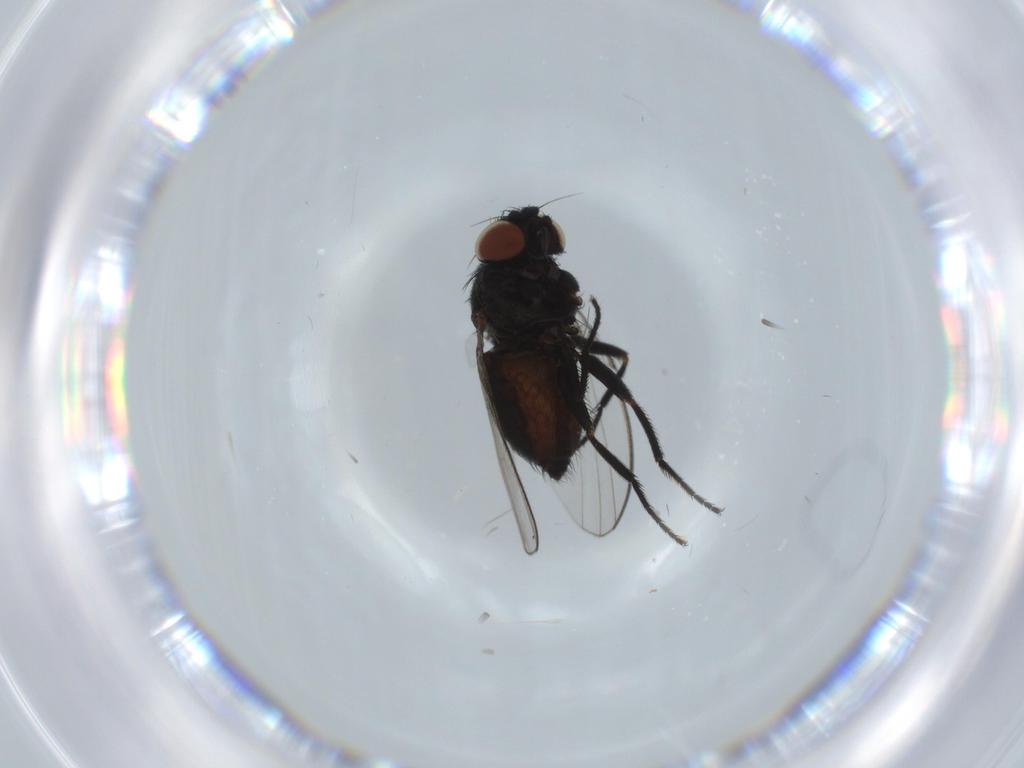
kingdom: Animalia
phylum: Arthropoda
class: Insecta
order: Diptera
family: Milichiidae
